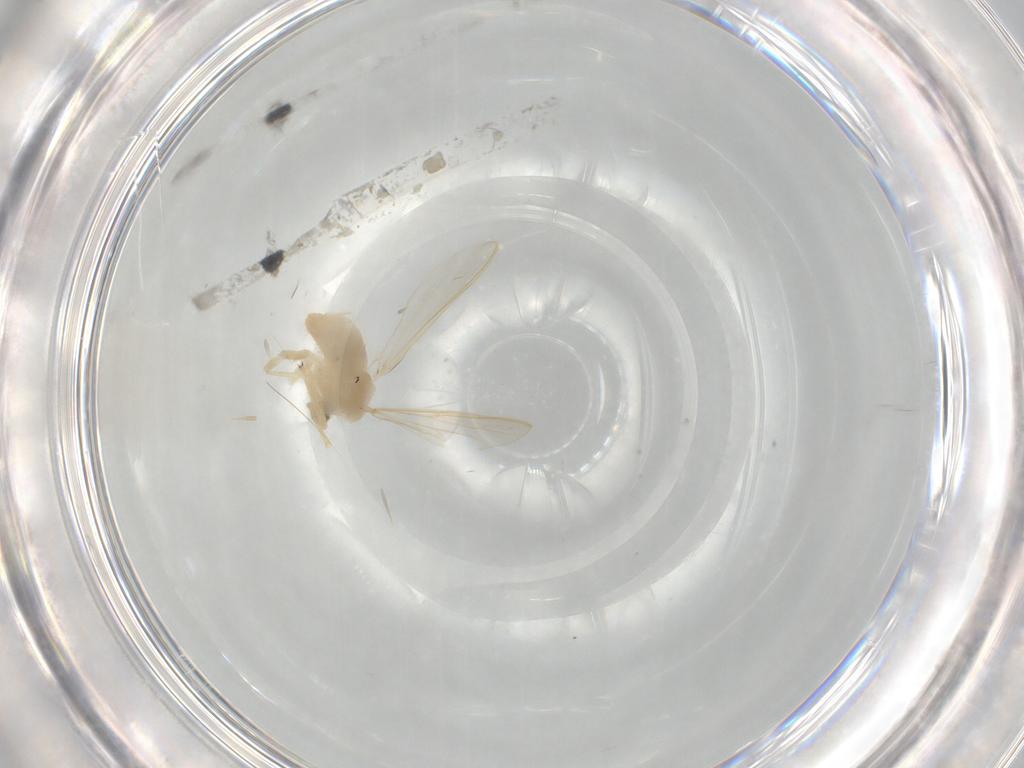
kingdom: Animalia
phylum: Arthropoda
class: Insecta
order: Diptera
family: Chironomidae
